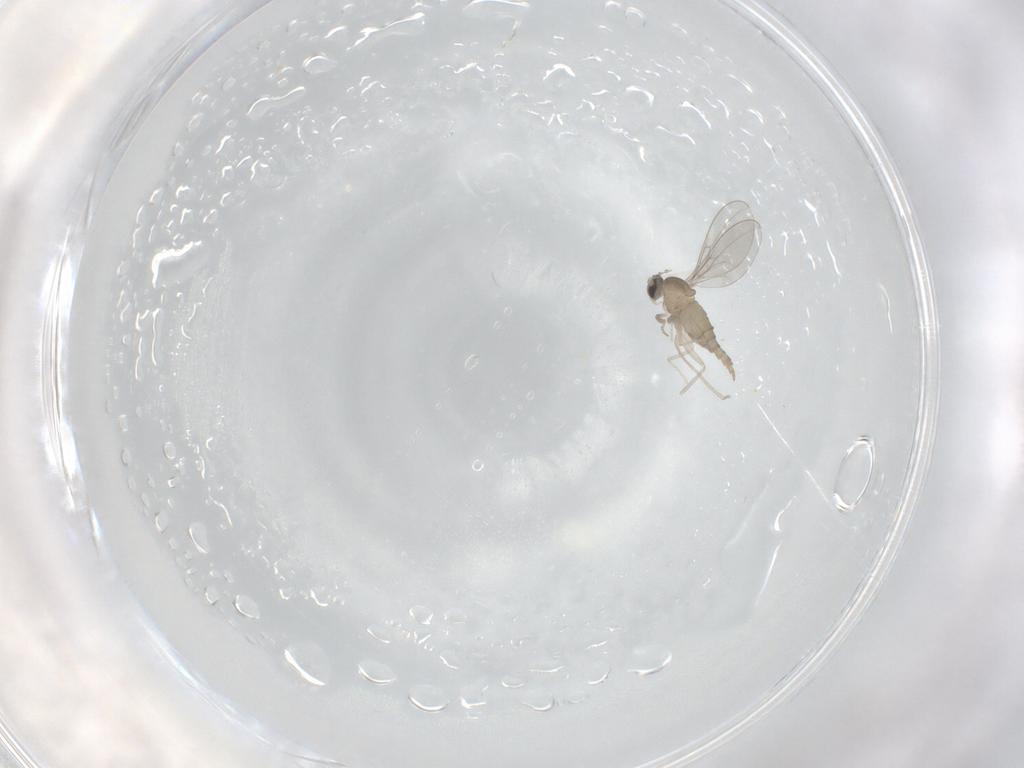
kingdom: Animalia
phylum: Arthropoda
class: Insecta
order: Diptera
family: Cecidomyiidae
